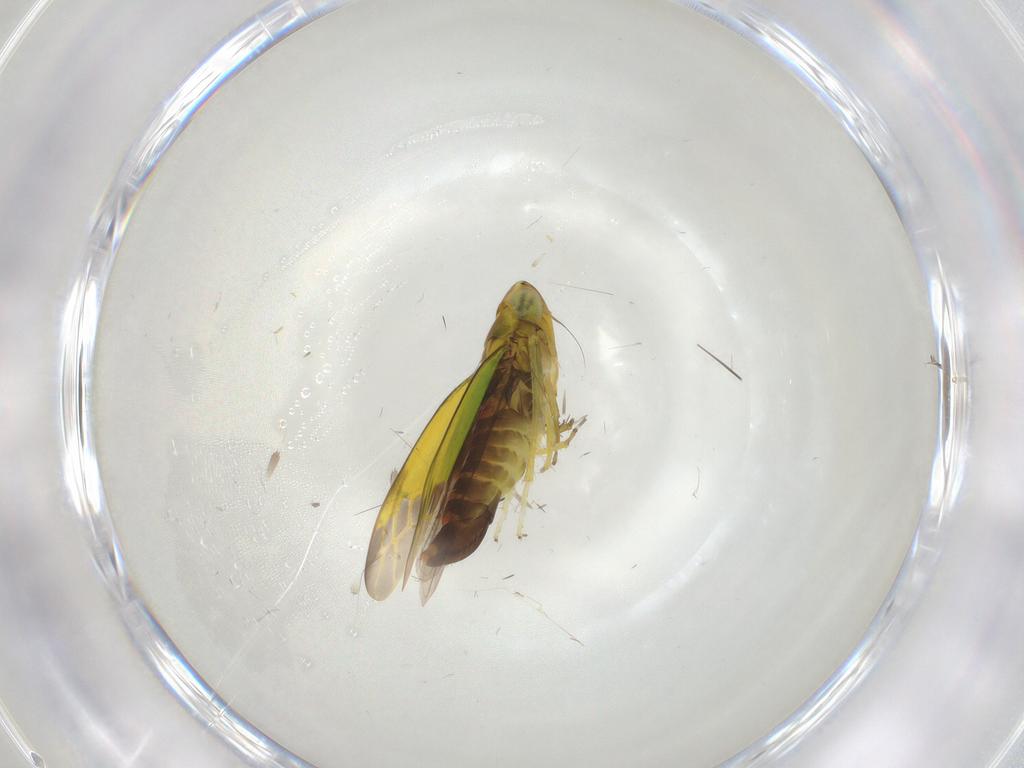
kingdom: Animalia
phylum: Arthropoda
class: Insecta
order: Hemiptera
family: Cicadellidae
